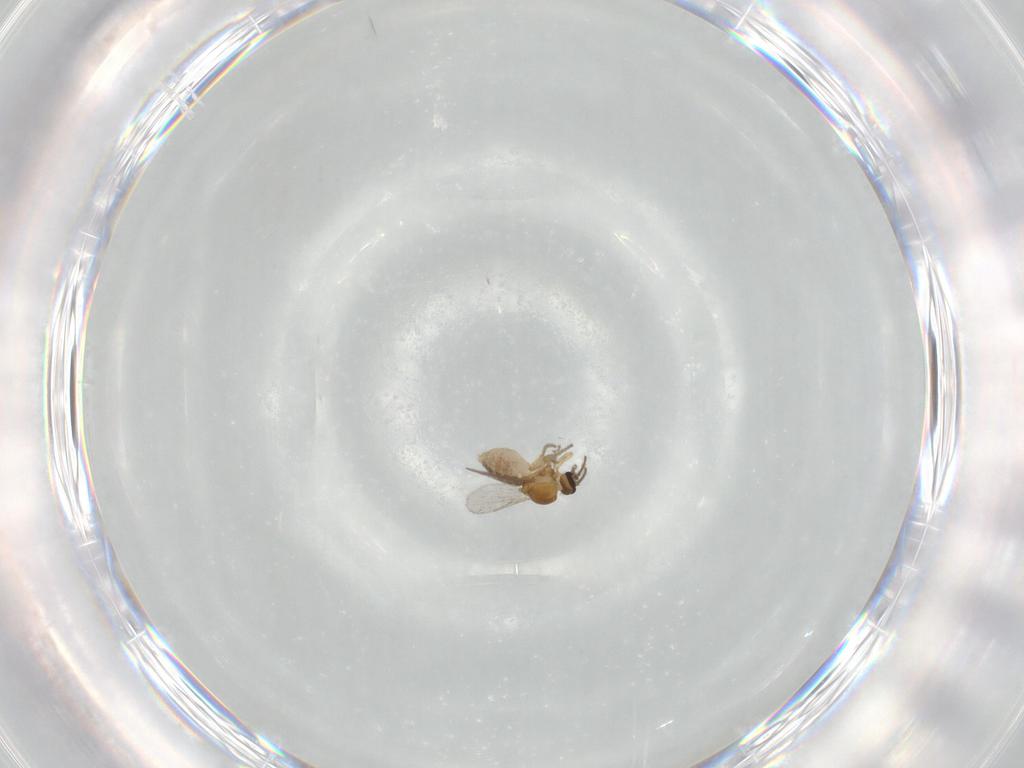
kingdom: Animalia
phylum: Arthropoda
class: Insecta
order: Diptera
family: Ceratopogonidae
